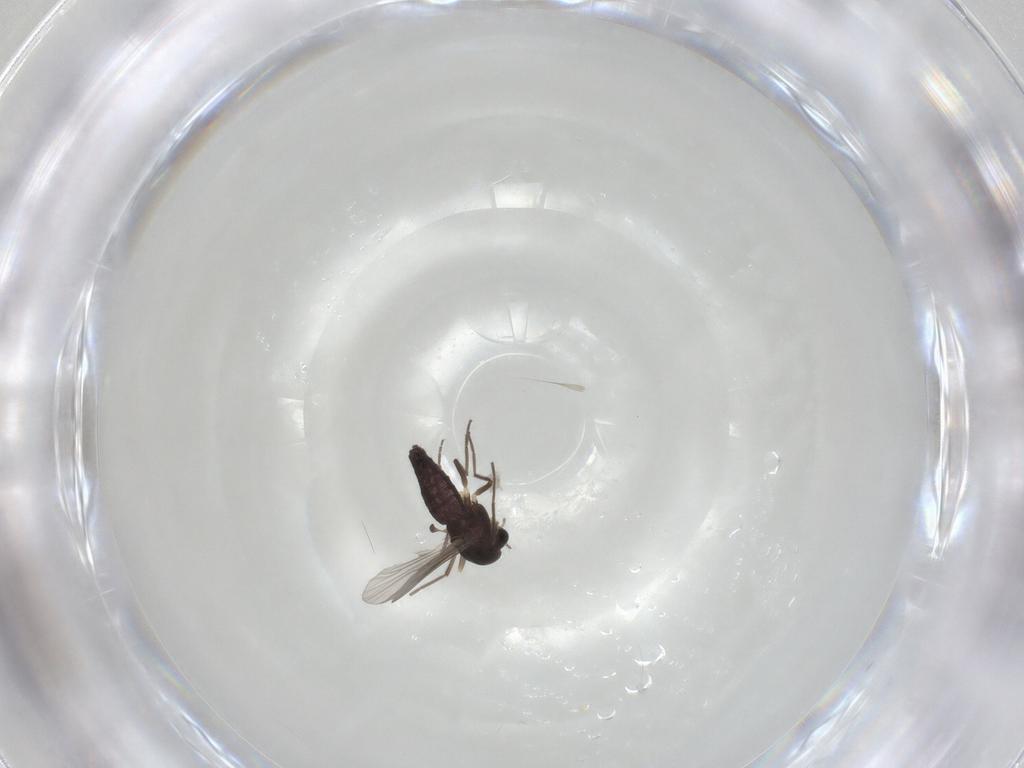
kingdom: Animalia
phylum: Arthropoda
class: Insecta
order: Diptera
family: Chironomidae
